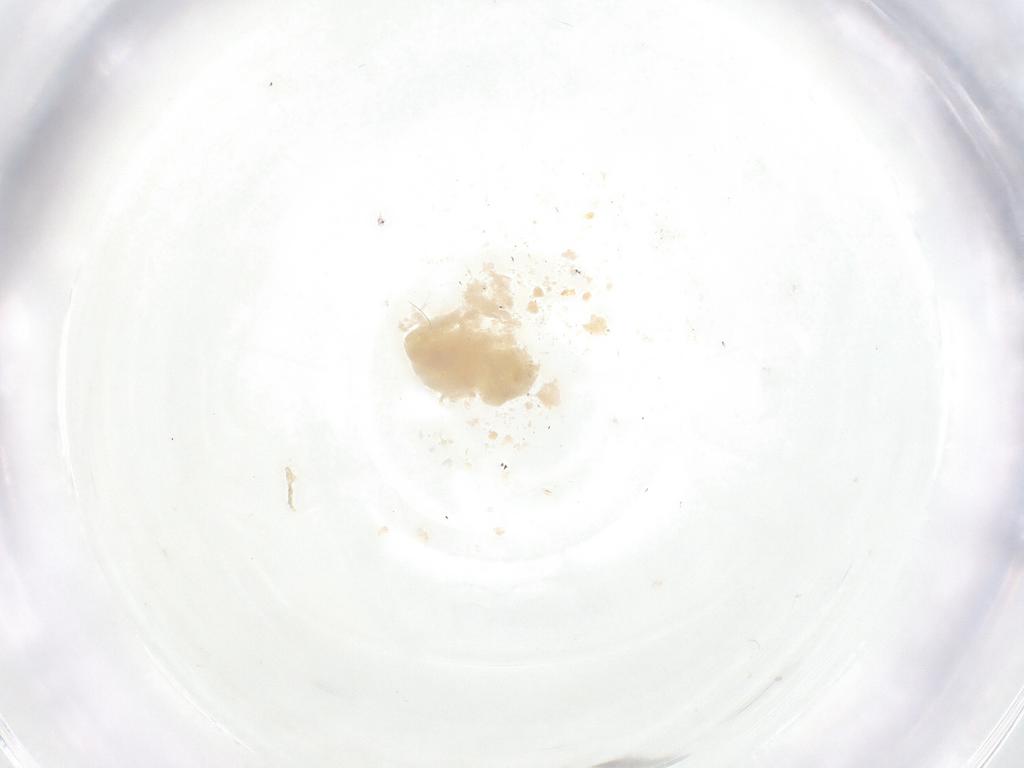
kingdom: Animalia
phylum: Arthropoda
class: Insecta
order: Diptera
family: Fergusoninidae
